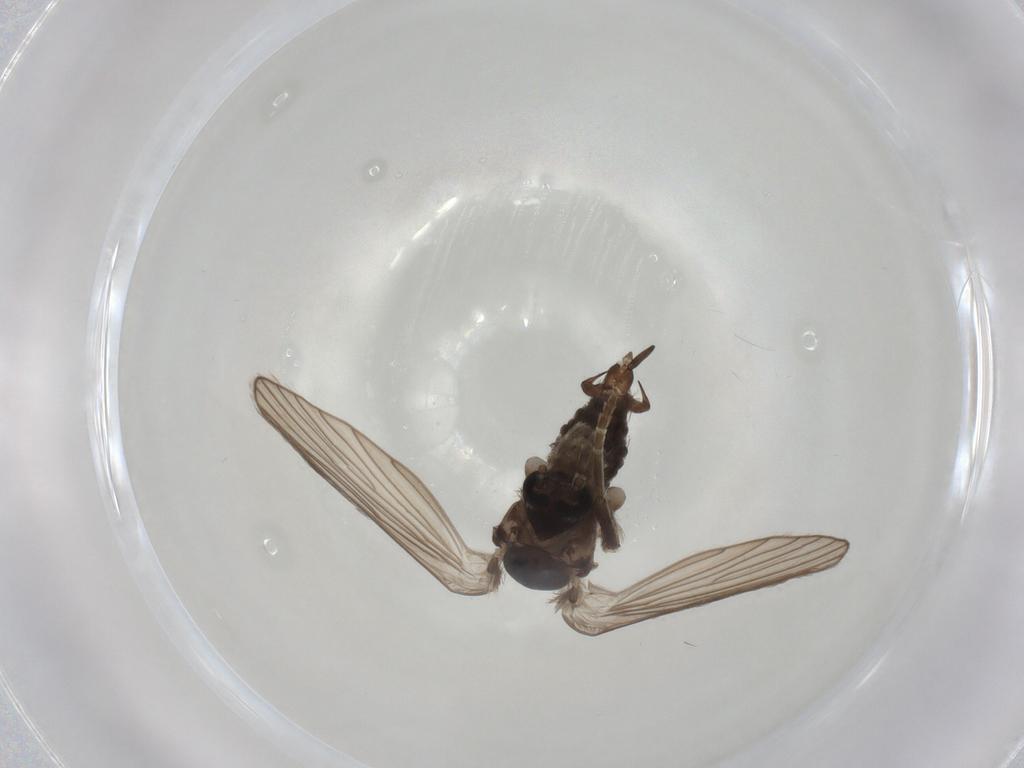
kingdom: Animalia
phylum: Arthropoda
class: Insecta
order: Diptera
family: Psychodidae
